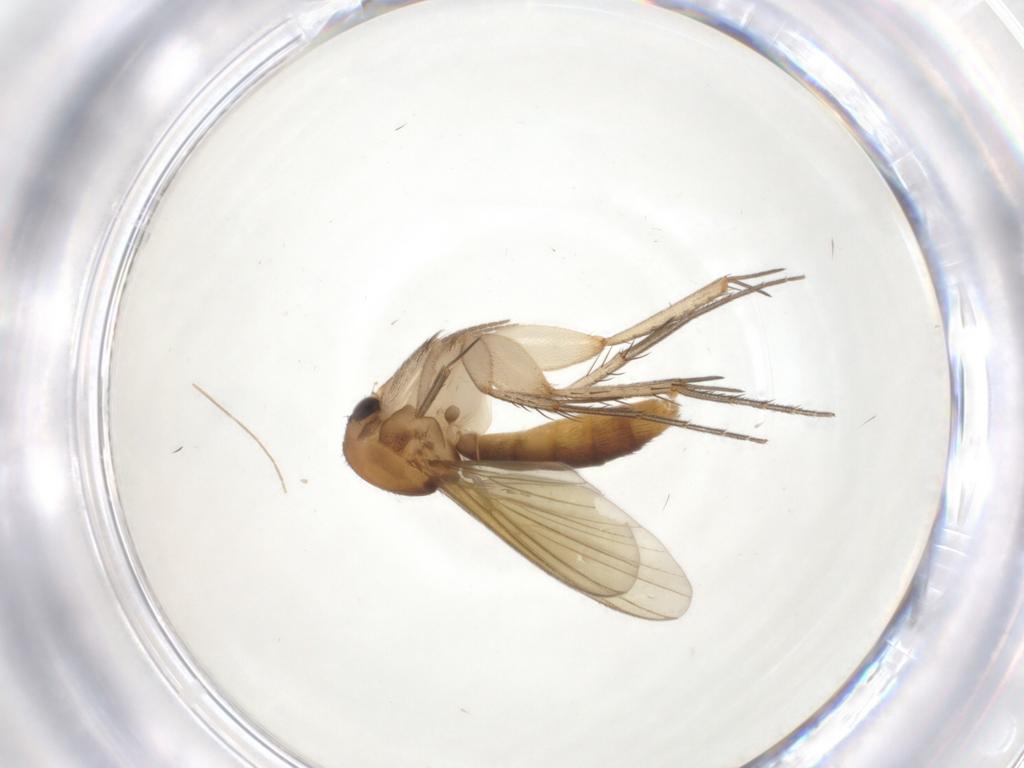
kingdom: Animalia
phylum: Arthropoda
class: Insecta
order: Diptera
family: Mycetophilidae
